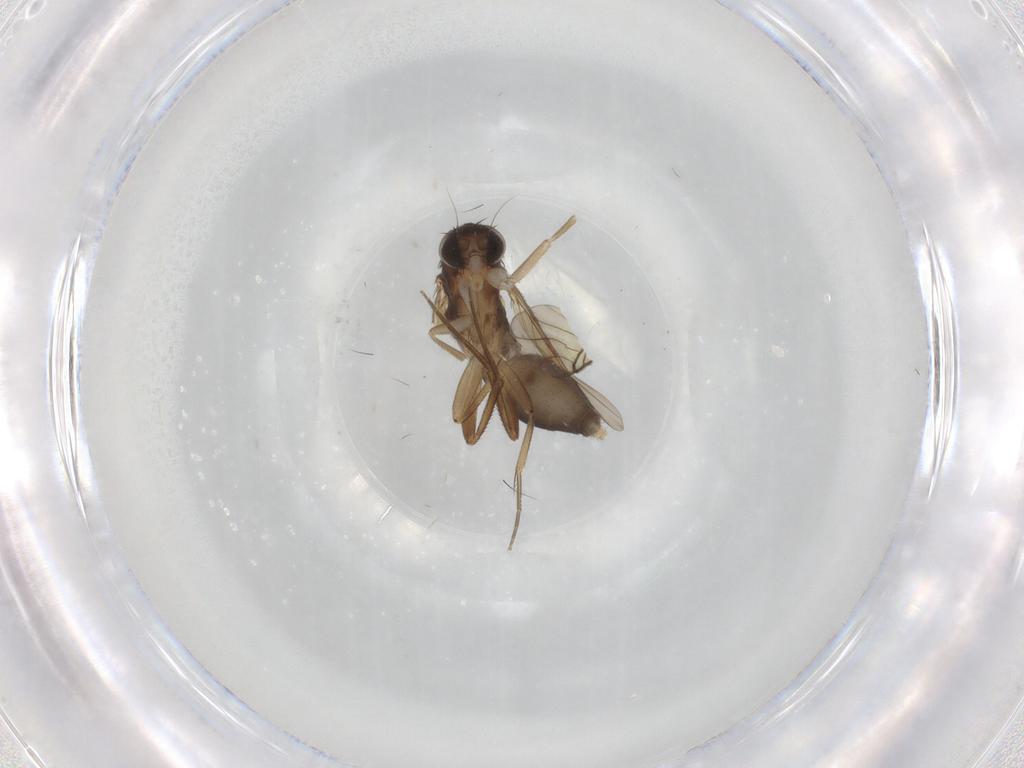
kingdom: Animalia
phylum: Arthropoda
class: Insecta
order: Diptera
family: Phoridae
